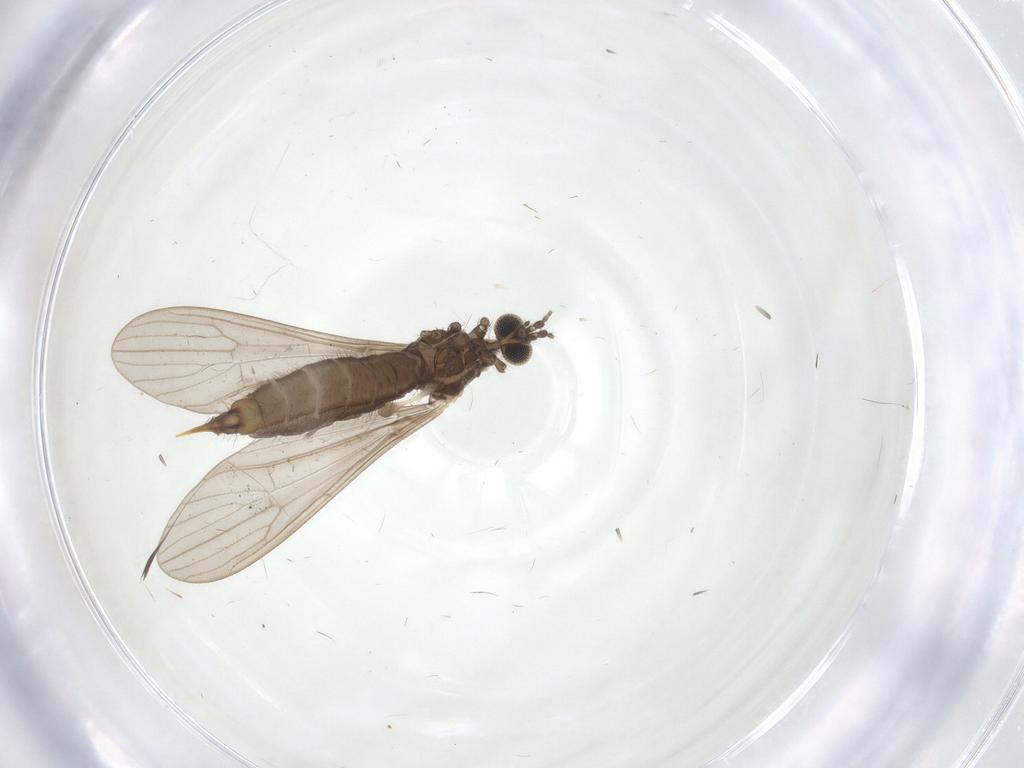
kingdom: Animalia
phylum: Arthropoda
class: Insecta
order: Diptera
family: Limoniidae
